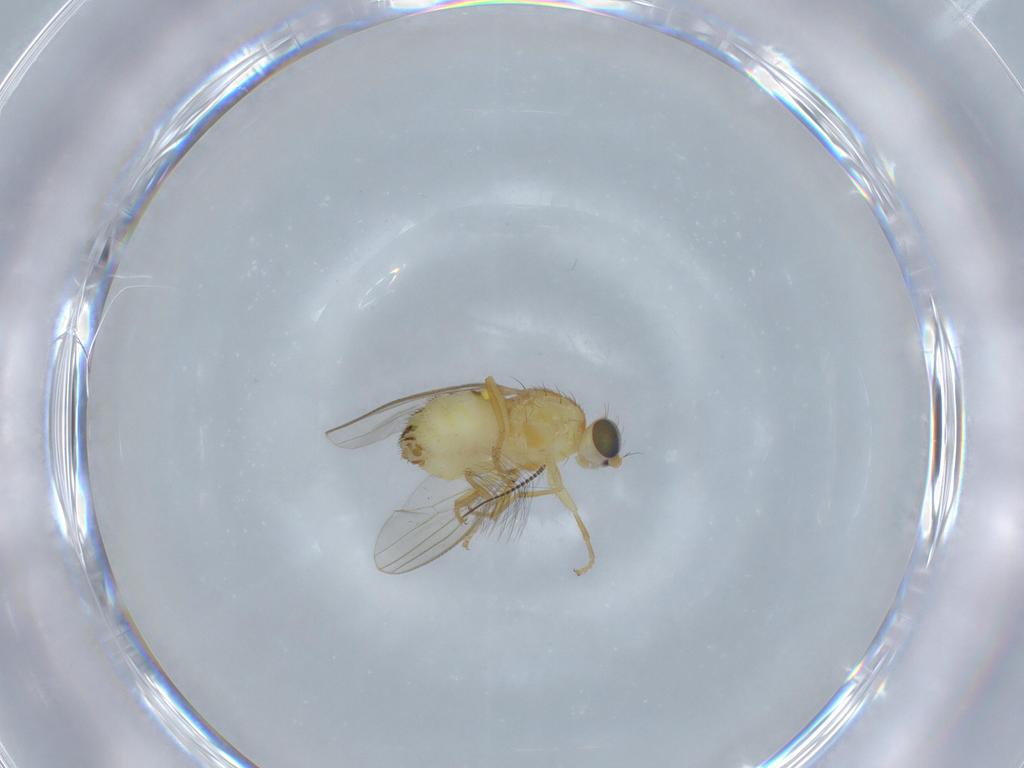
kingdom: Animalia
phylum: Arthropoda
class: Insecta
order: Diptera
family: Chyromyidae
